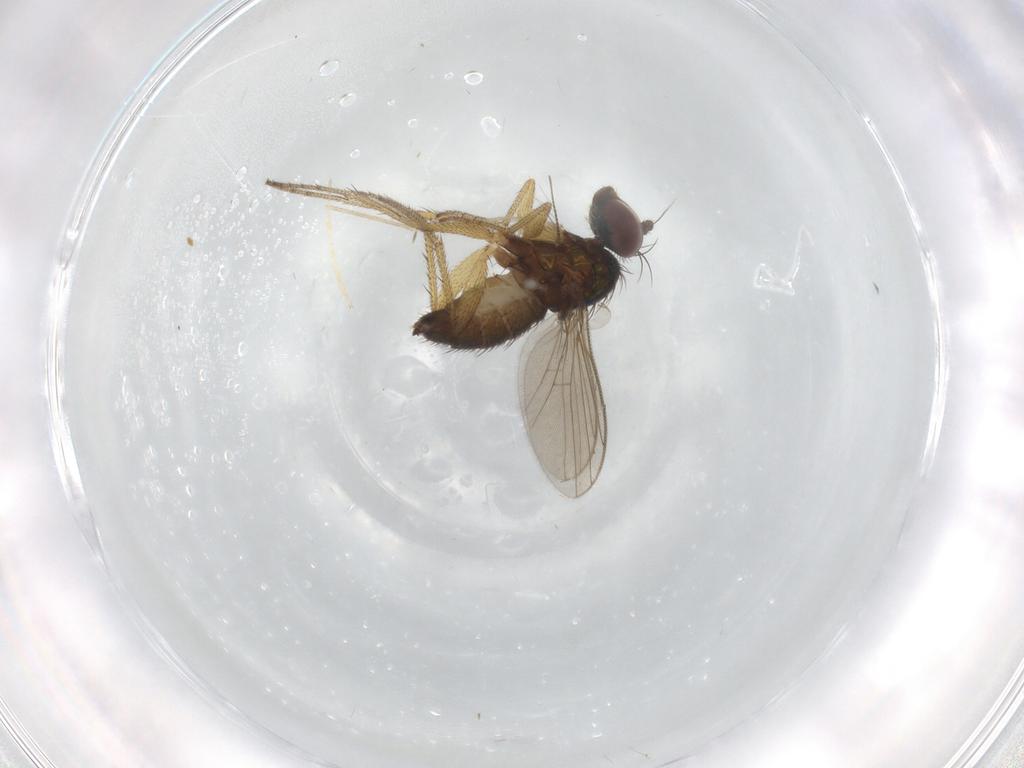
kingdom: Animalia
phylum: Arthropoda
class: Insecta
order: Diptera
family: Chironomidae
